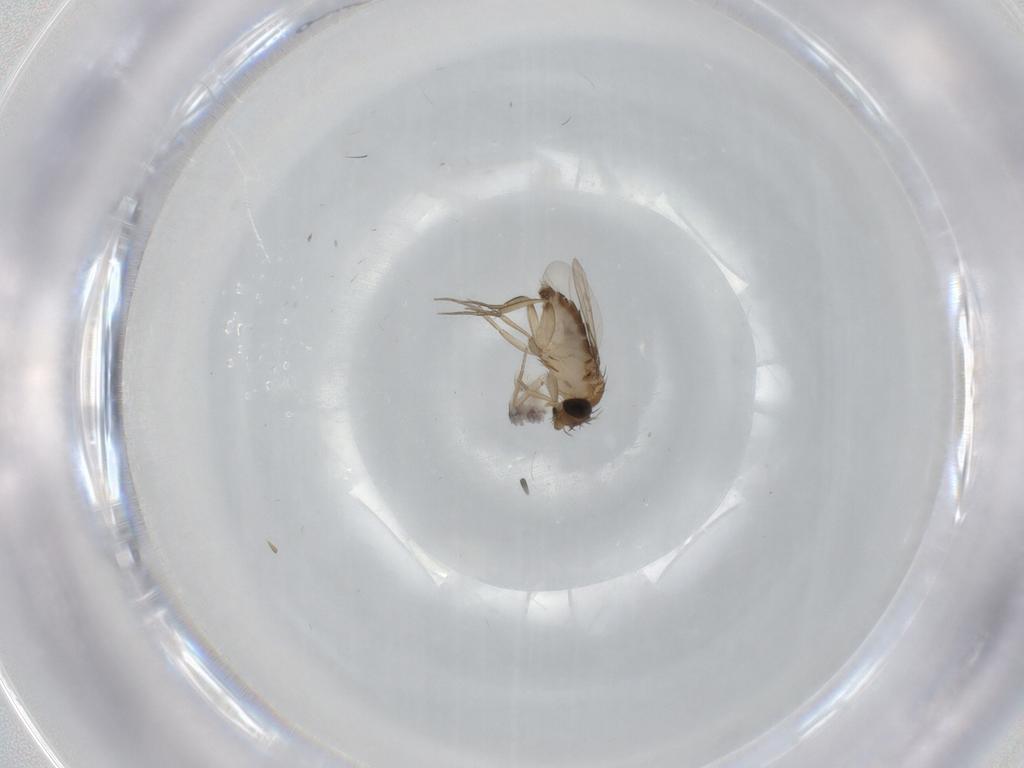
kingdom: Animalia
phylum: Arthropoda
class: Insecta
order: Diptera
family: Phoridae
